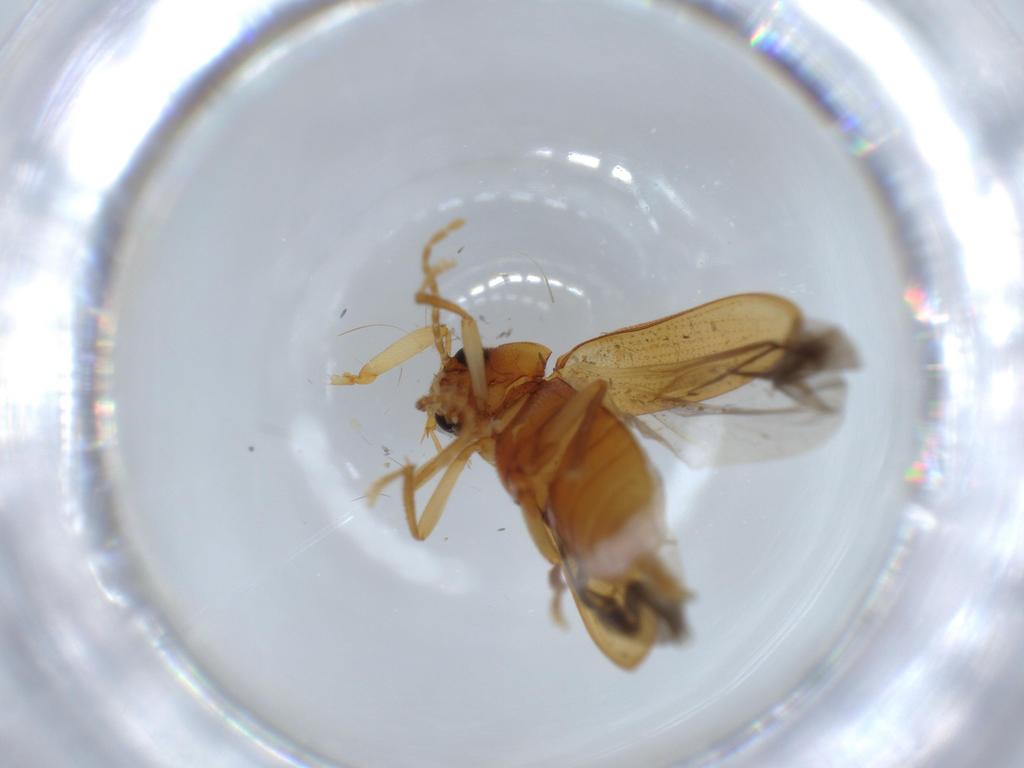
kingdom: Animalia
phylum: Arthropoda
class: Insecta
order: Coleoptera
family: Ptilodactylidae
